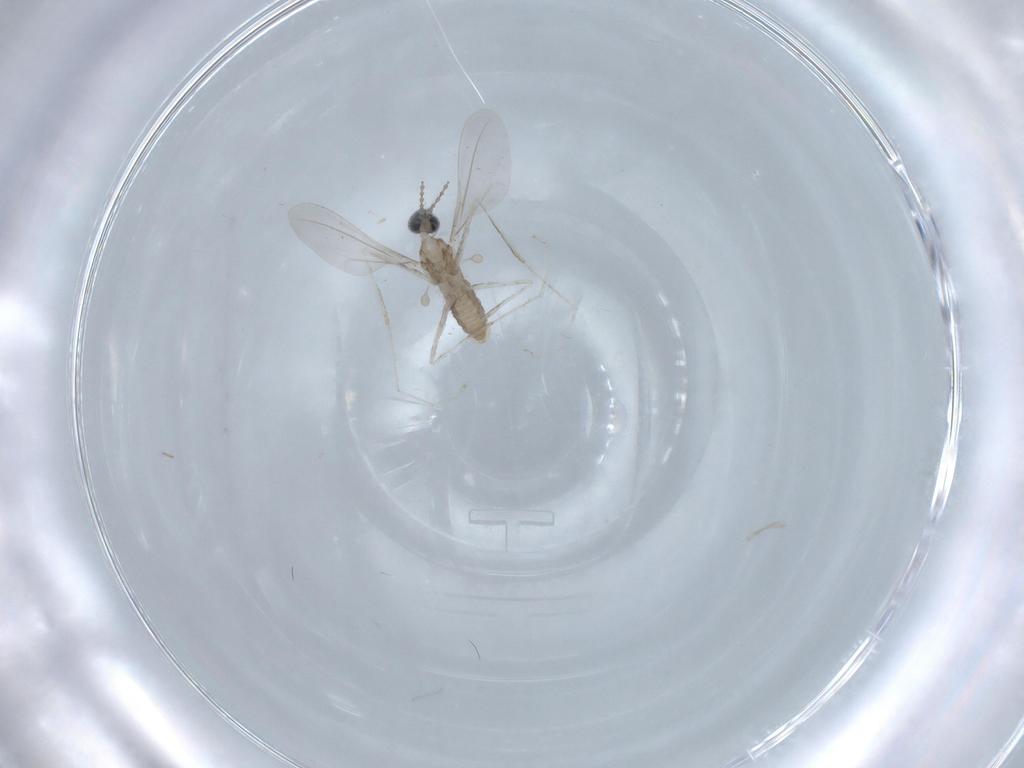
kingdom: Animalia
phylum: Arthropoda
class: Insecta
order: Diptera
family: Cecidomyiidae
